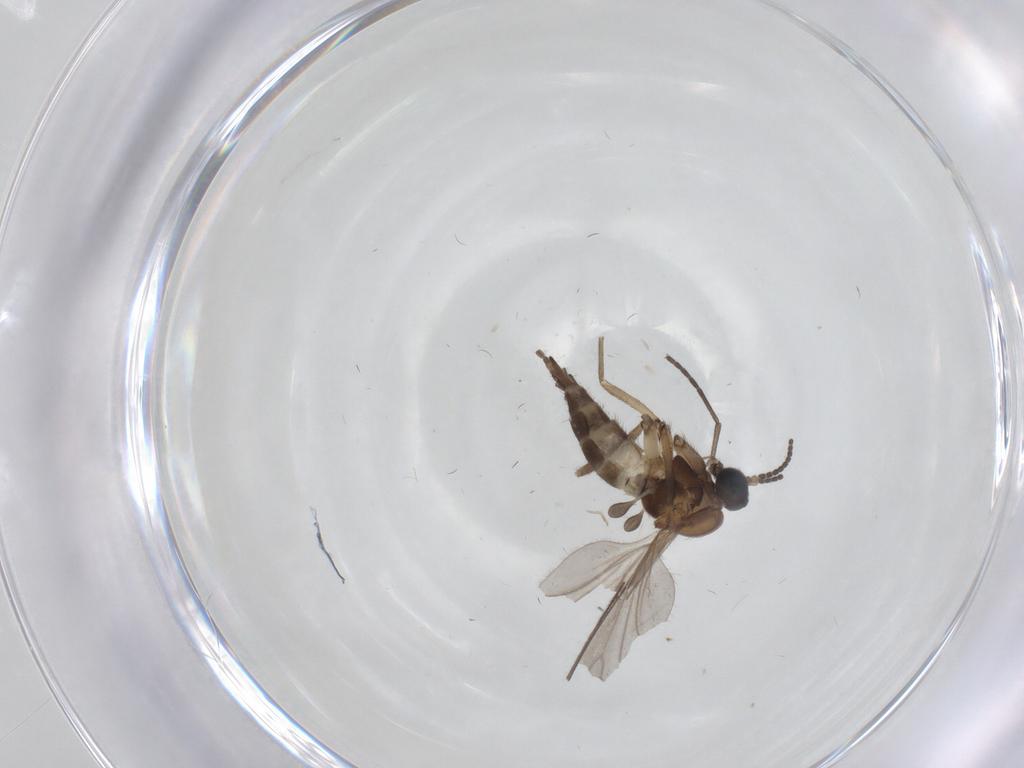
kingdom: Animalia
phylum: Arthropoda
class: Insecta
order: Diptera
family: Sciaridae
